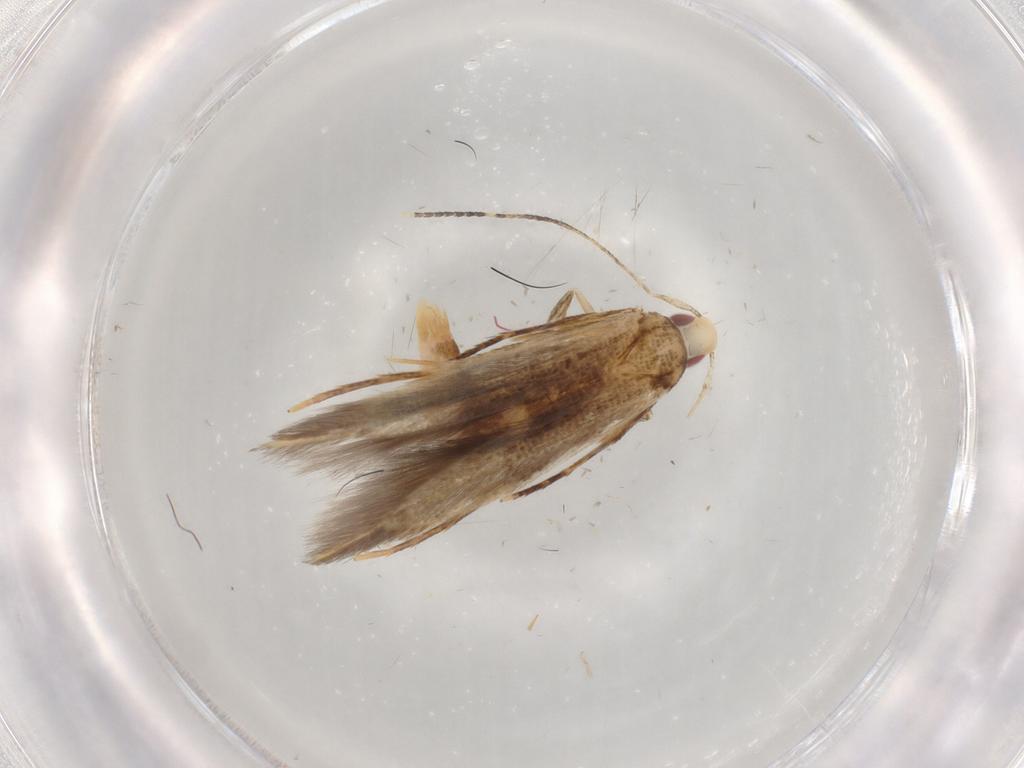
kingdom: Animalia
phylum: Arthropoda
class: Insecta
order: Lepidoptera
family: Gelechiidae
